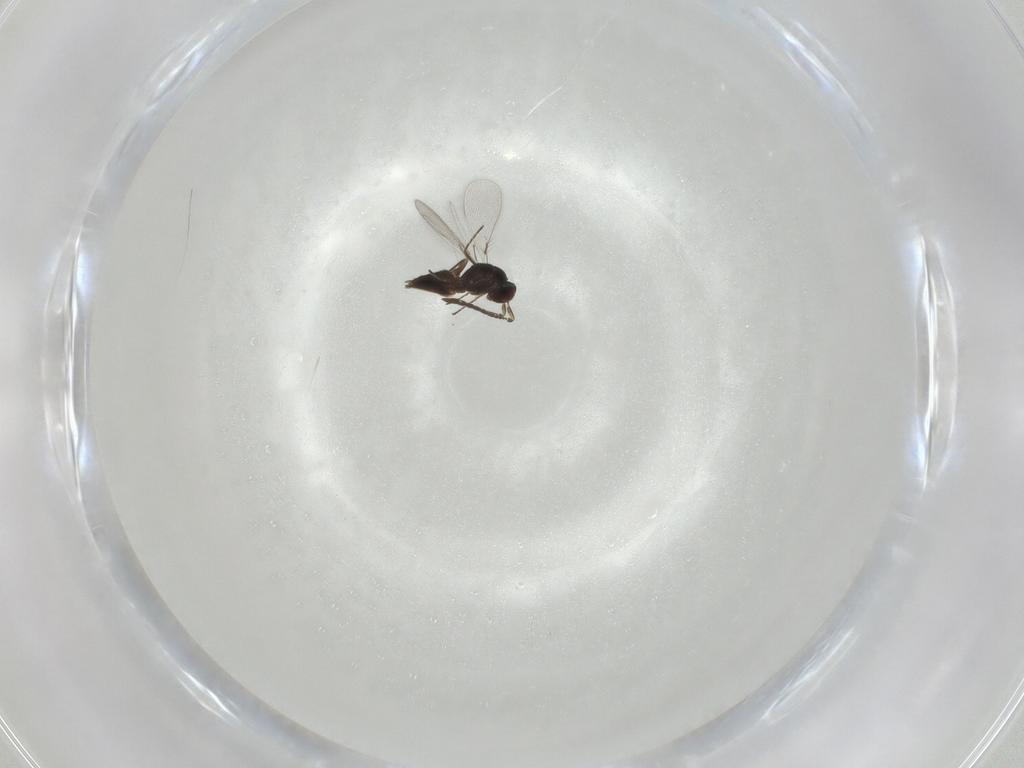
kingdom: Animalia
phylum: Arthropoda
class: Insecta
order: Hymenoptera
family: Mymaridae
